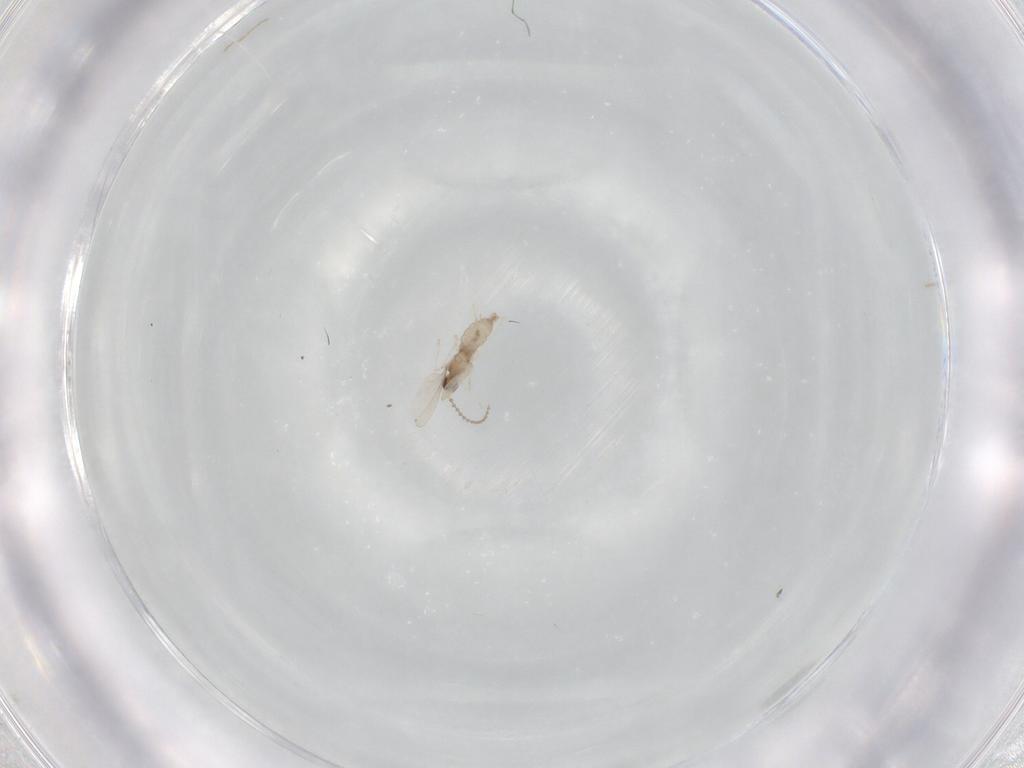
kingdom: Animalia
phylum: Arthropoda
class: Insecta
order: Diptera
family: Cecidomyiidae
